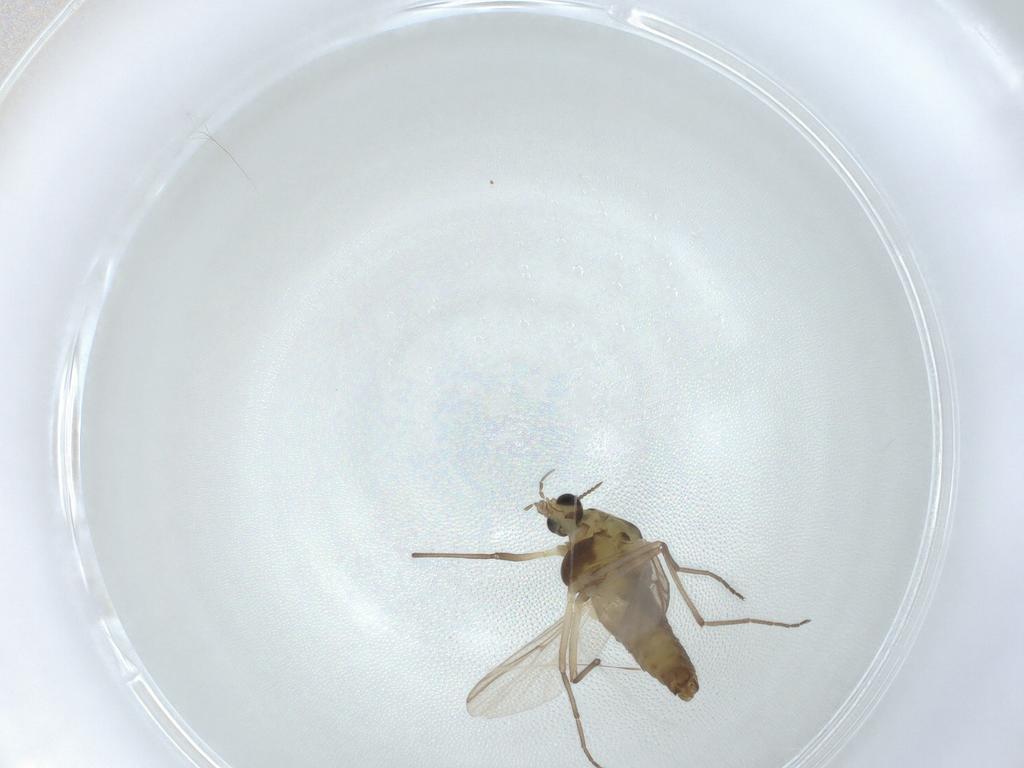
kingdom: Animalia
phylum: Arthropoda
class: Insecta
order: Diptera
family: Chironomidae
